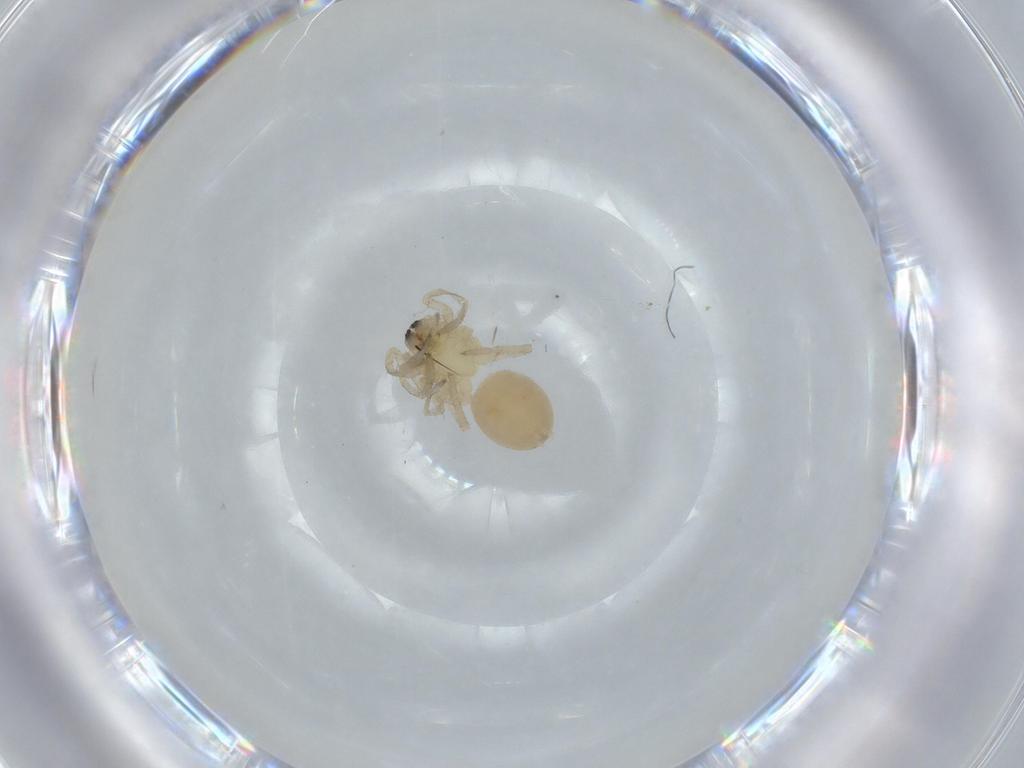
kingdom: Animalia
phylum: Arthropoda
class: Arachnida
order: Araneae
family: Amaurobiidae
